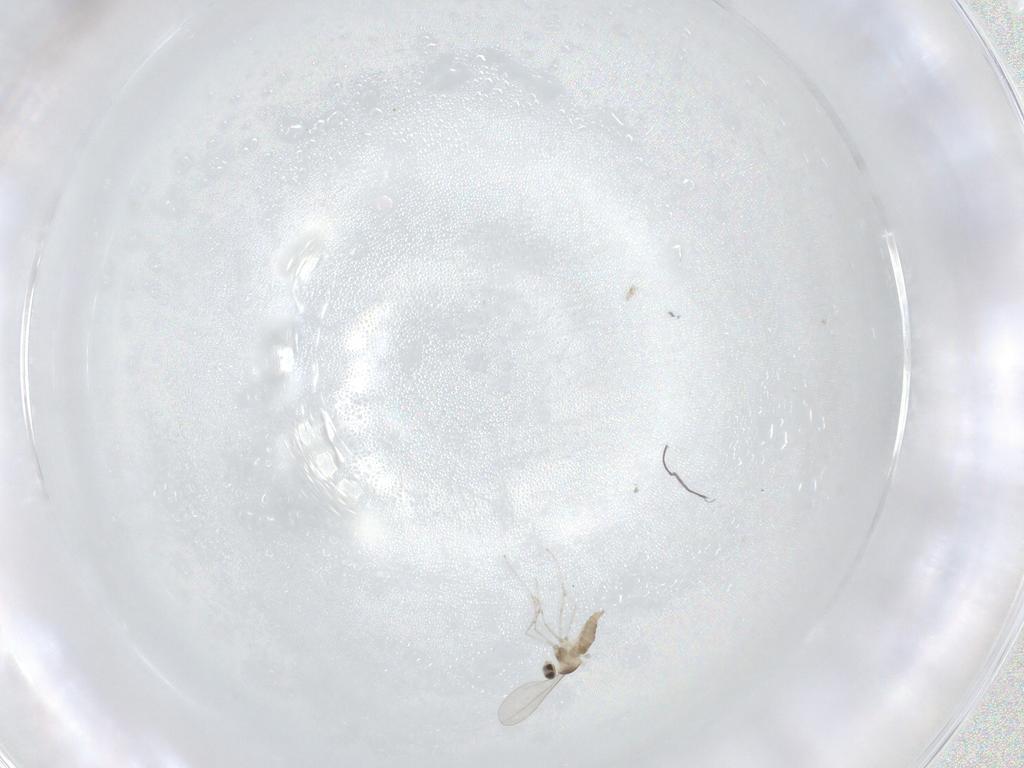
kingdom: Animalia
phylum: Arthropoda
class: Insecta
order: Diptera
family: Cecidomyiidae
